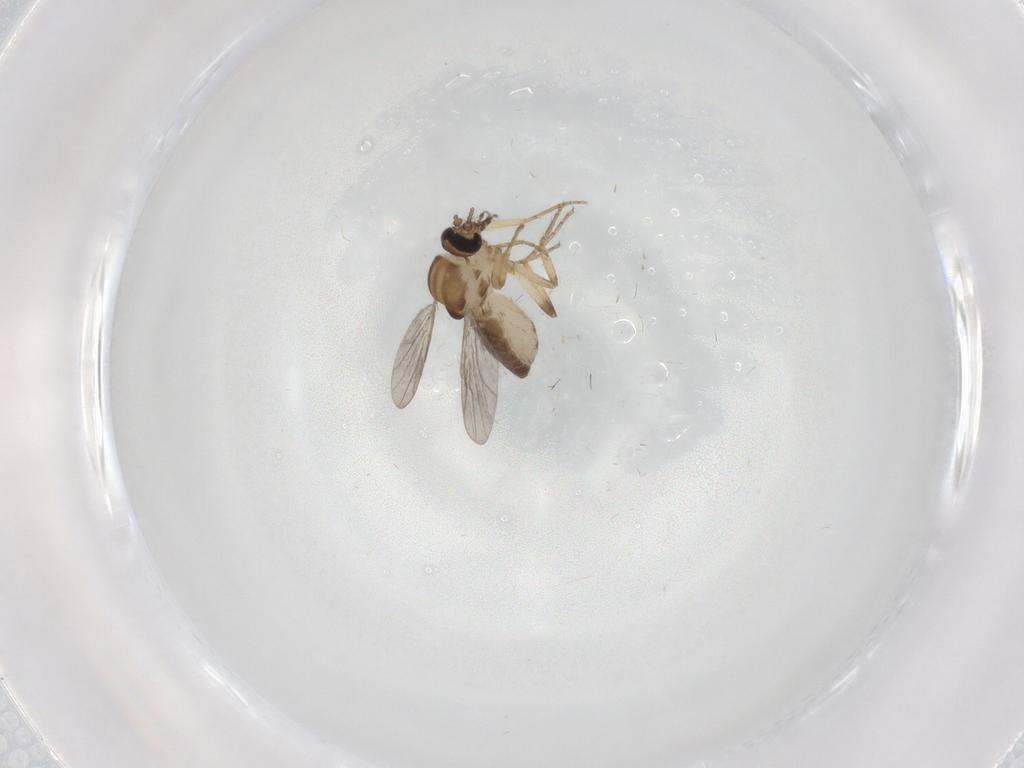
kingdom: Animalia
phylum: Arthropoda
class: Insecta
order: Diptera
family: Ceratopogonidae
